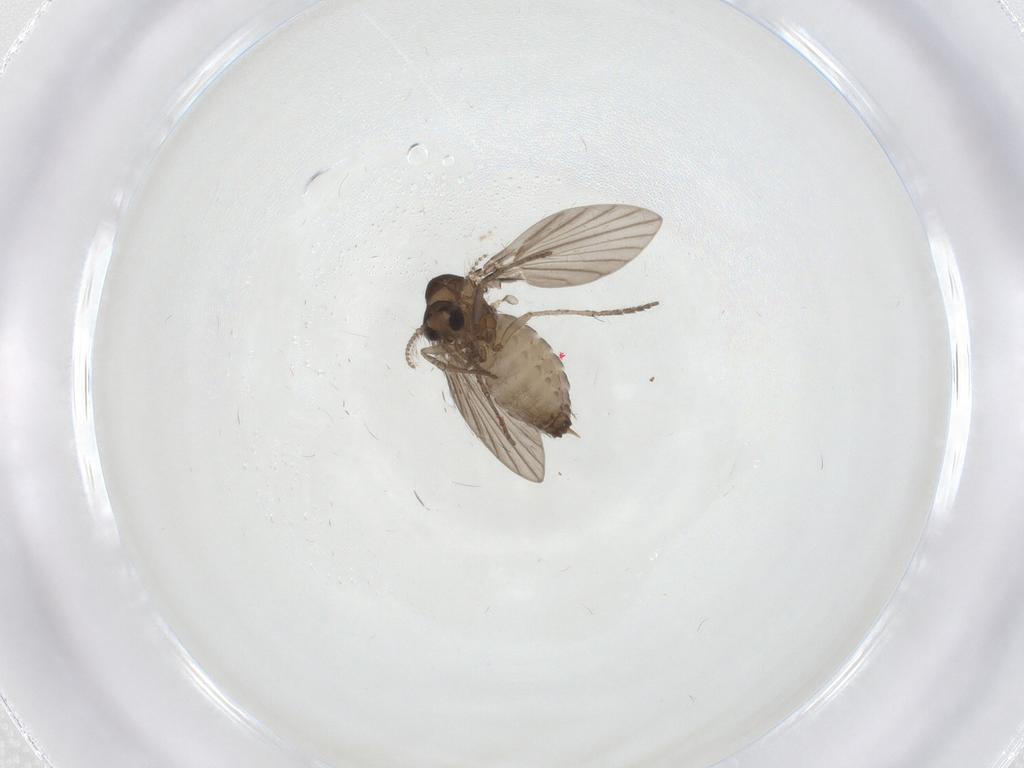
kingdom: Animalia
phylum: Arthropoda
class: Insecta
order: Diptera
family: Psychodidae
